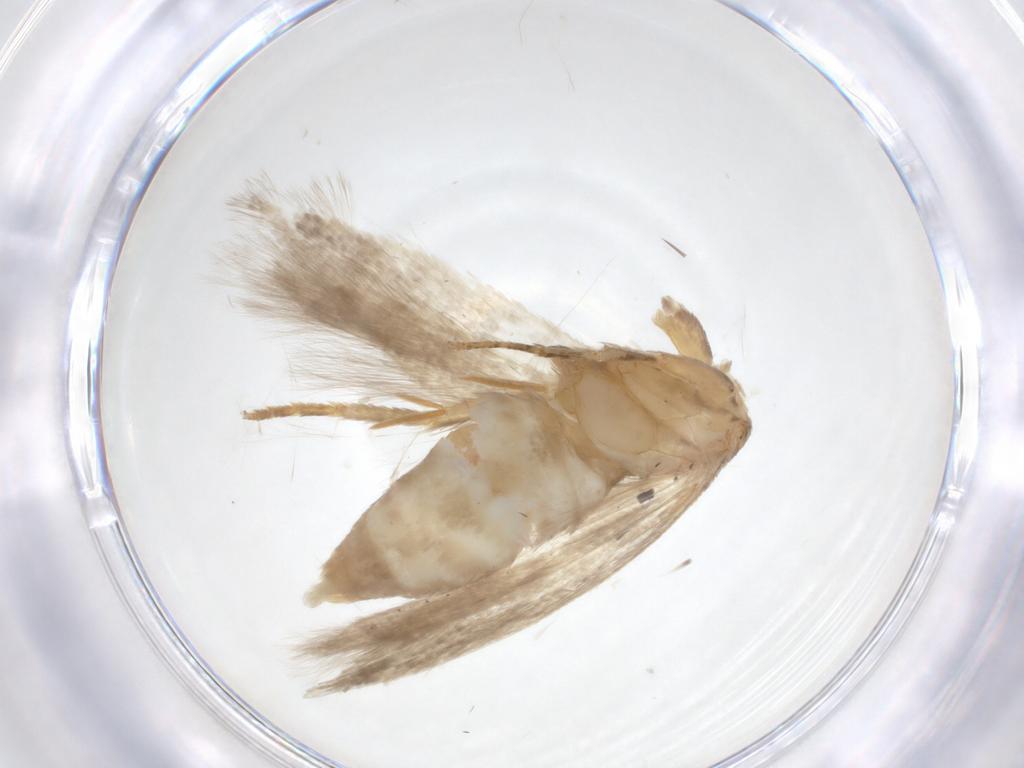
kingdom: Animalia
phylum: Arthropoda
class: Insecta
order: Lepidoptera
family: Gelechiidae
